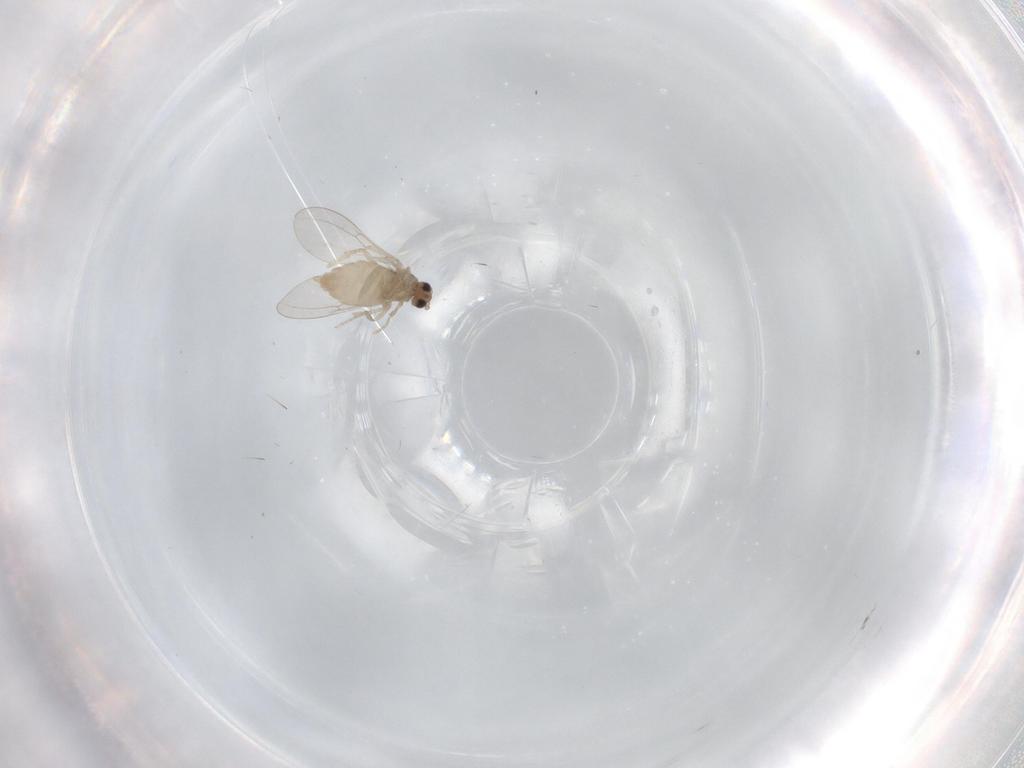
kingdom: Animalia
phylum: Arthropoda
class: Insecta
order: Diptera
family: Cecidomyiidae
